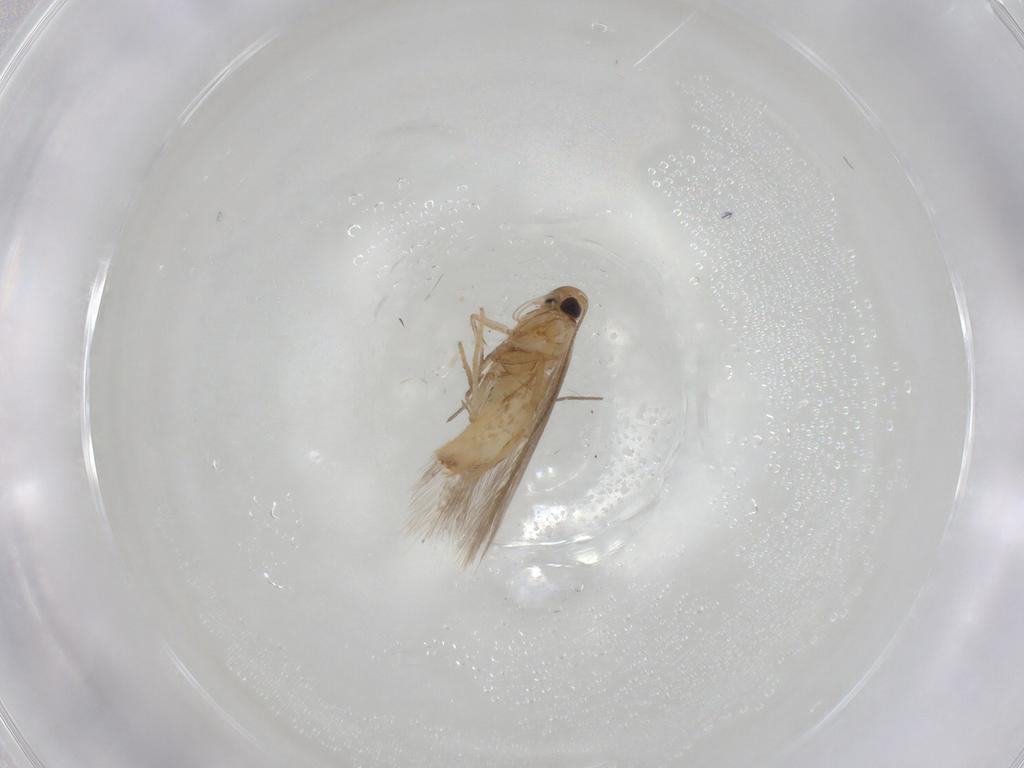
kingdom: Animalia
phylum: Arthropoda
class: Insecta
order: Lepidoptera
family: Tischeriidae
